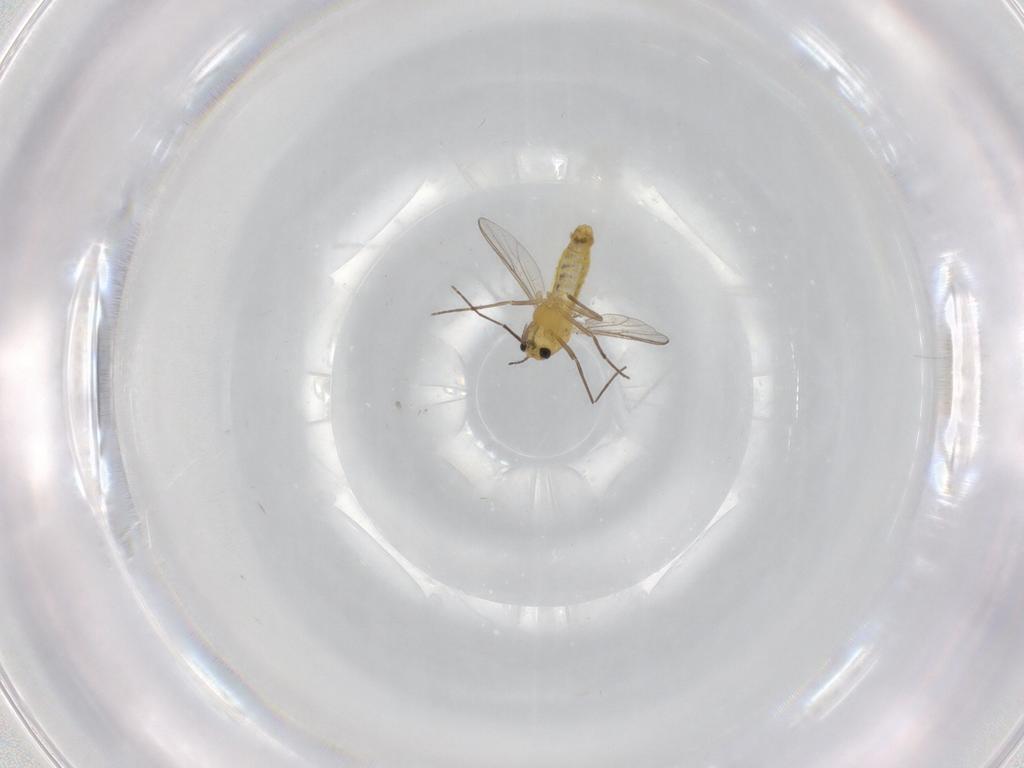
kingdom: Animalia
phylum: Arthropoda
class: Insecta
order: Diptera
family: Chironomidae
